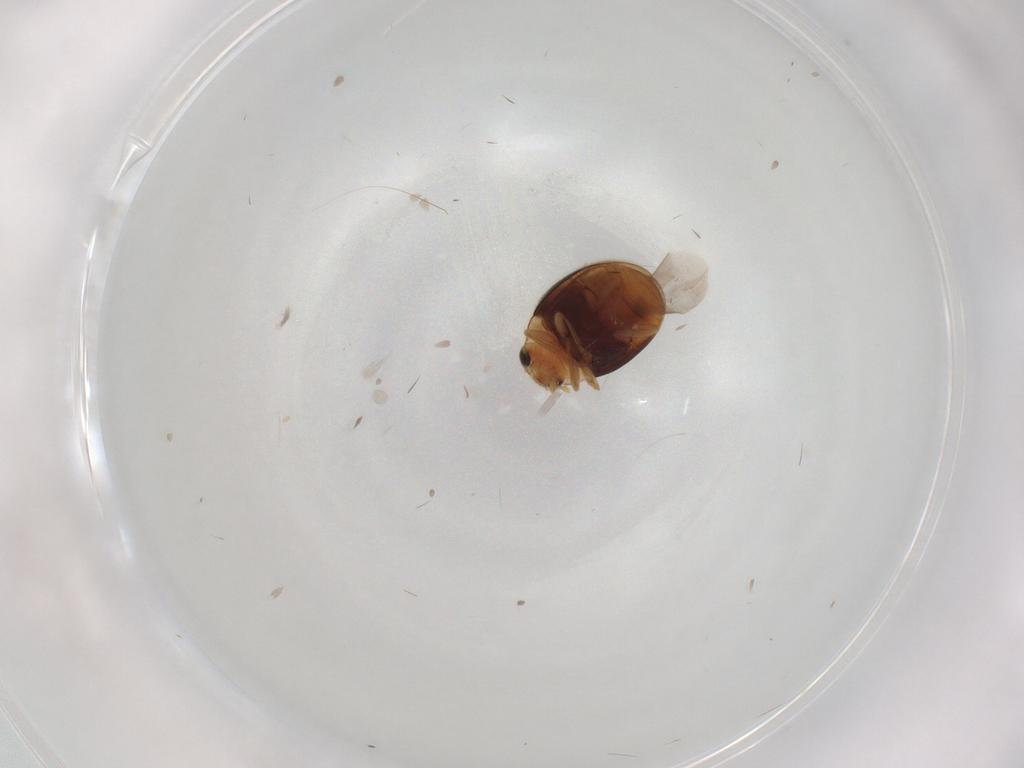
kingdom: Animalia
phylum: Arthropoda
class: Insecta
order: Coleoptera
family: Coccinellidae
